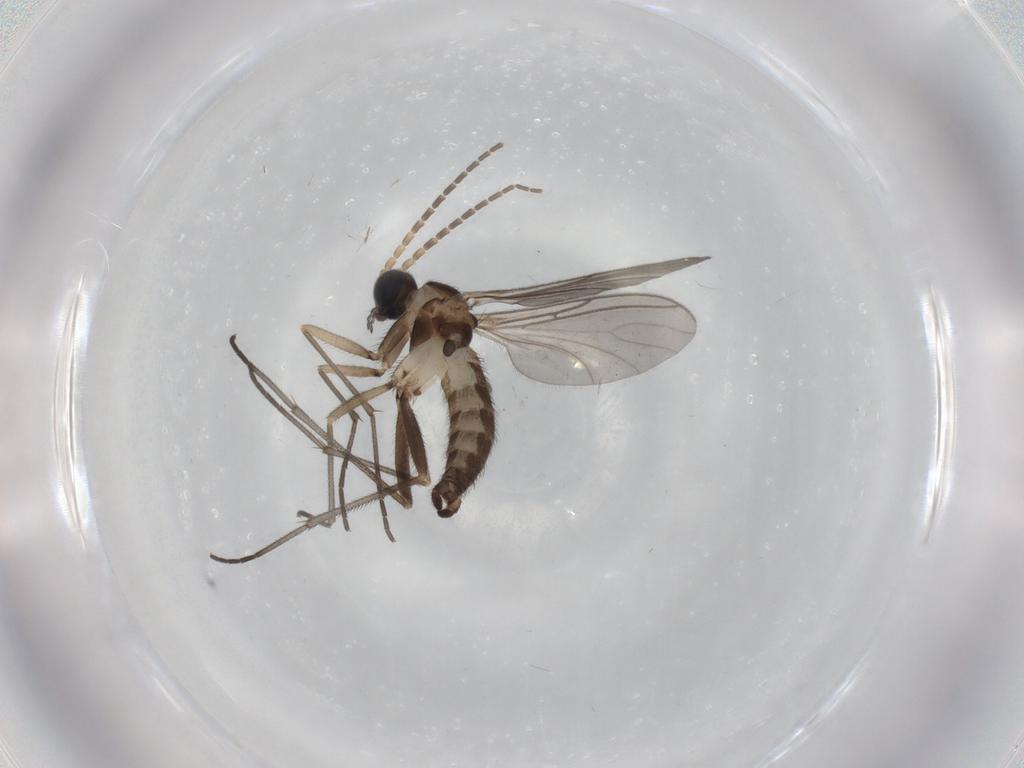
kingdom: Animalia
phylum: Arthropoda
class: Insecta
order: Diptera
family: Sciaridae
